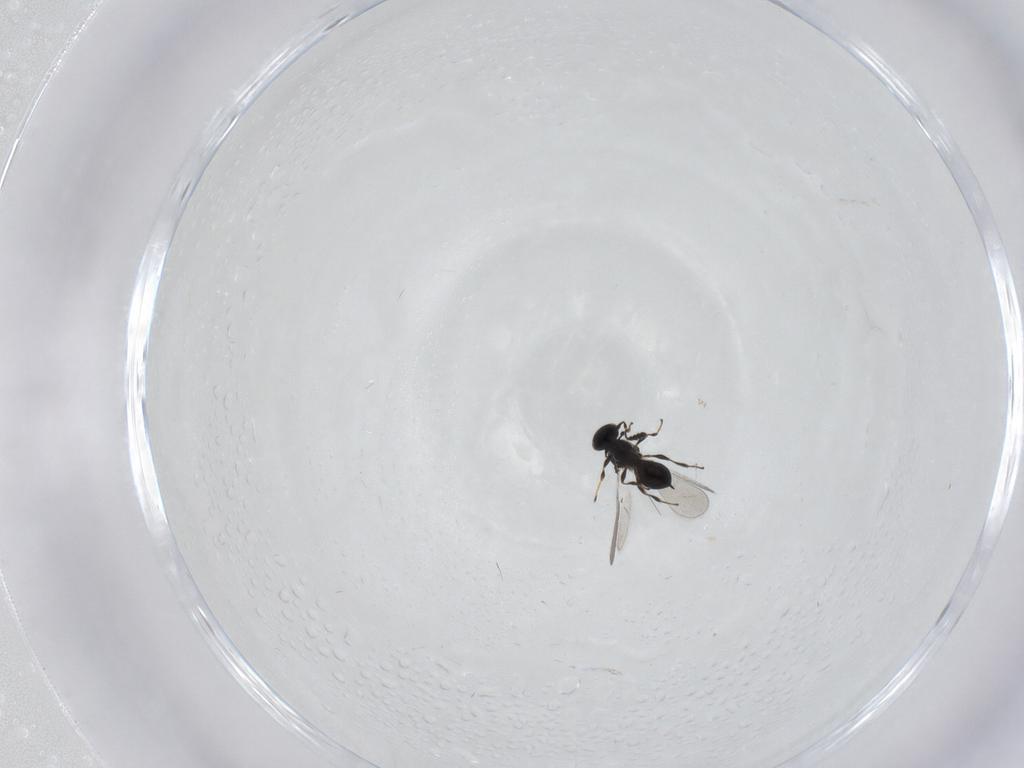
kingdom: Animalia
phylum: Arthropoda
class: Insecta
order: Hymenoptera
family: Platygastridae
